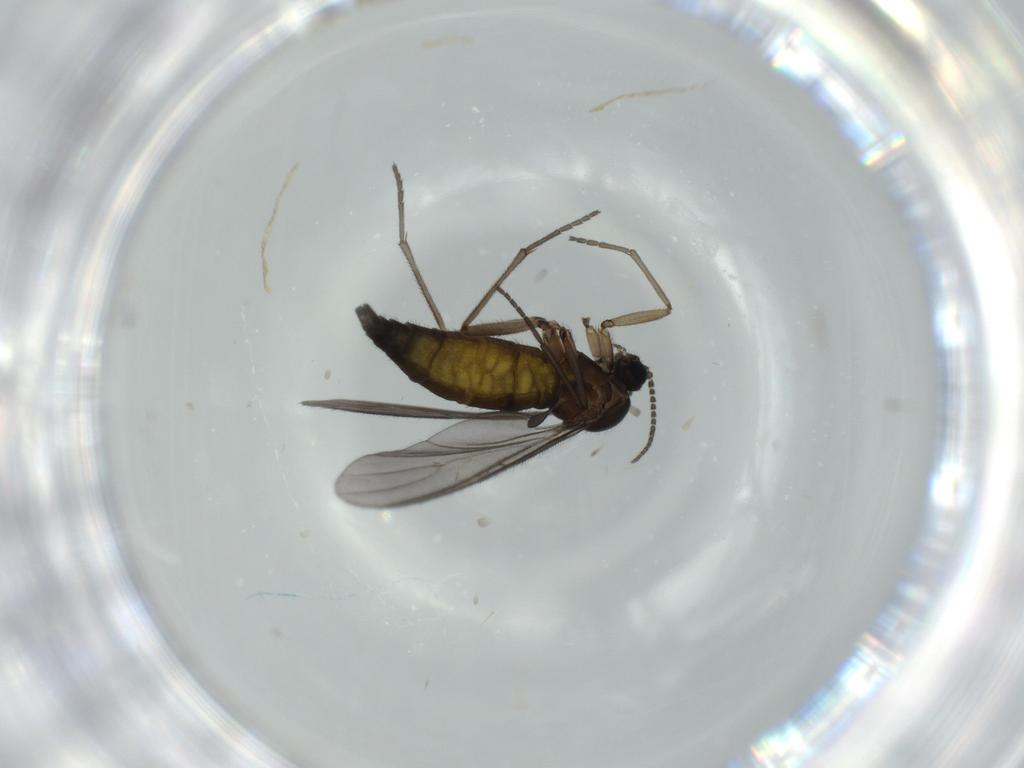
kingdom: Animalia
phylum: Arthropoda
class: Insecta
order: Diptera
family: Sciaridae
